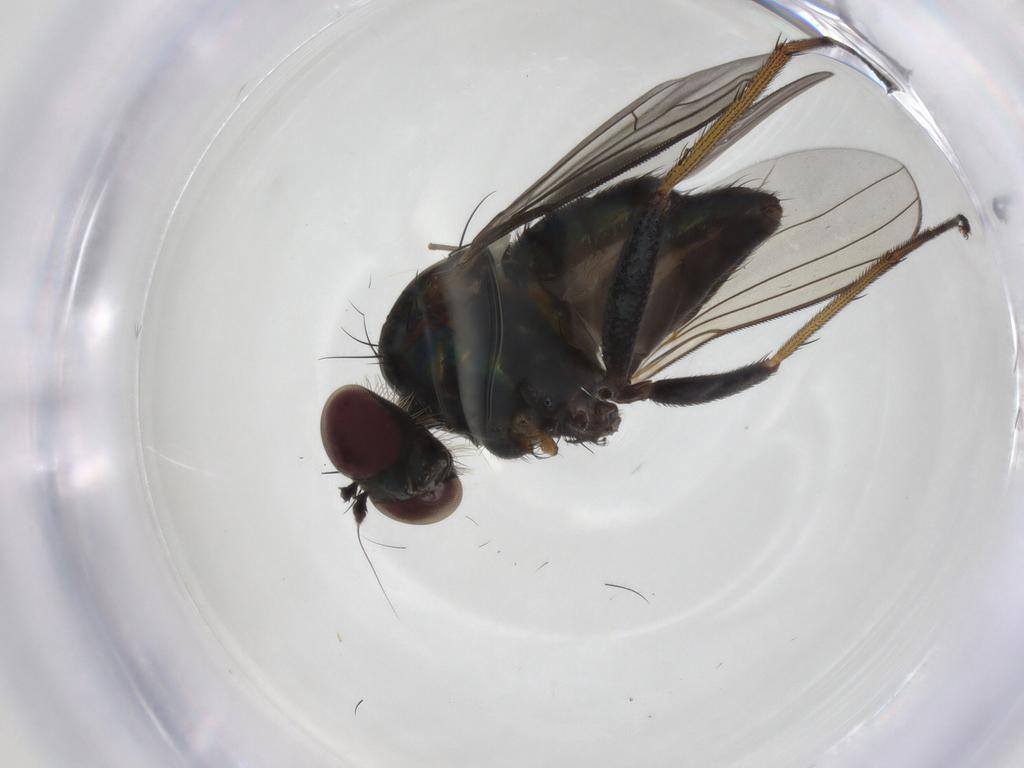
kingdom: Animalia
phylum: Arthropoda
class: Insecta
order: Diptera
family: Dolichopodidae
